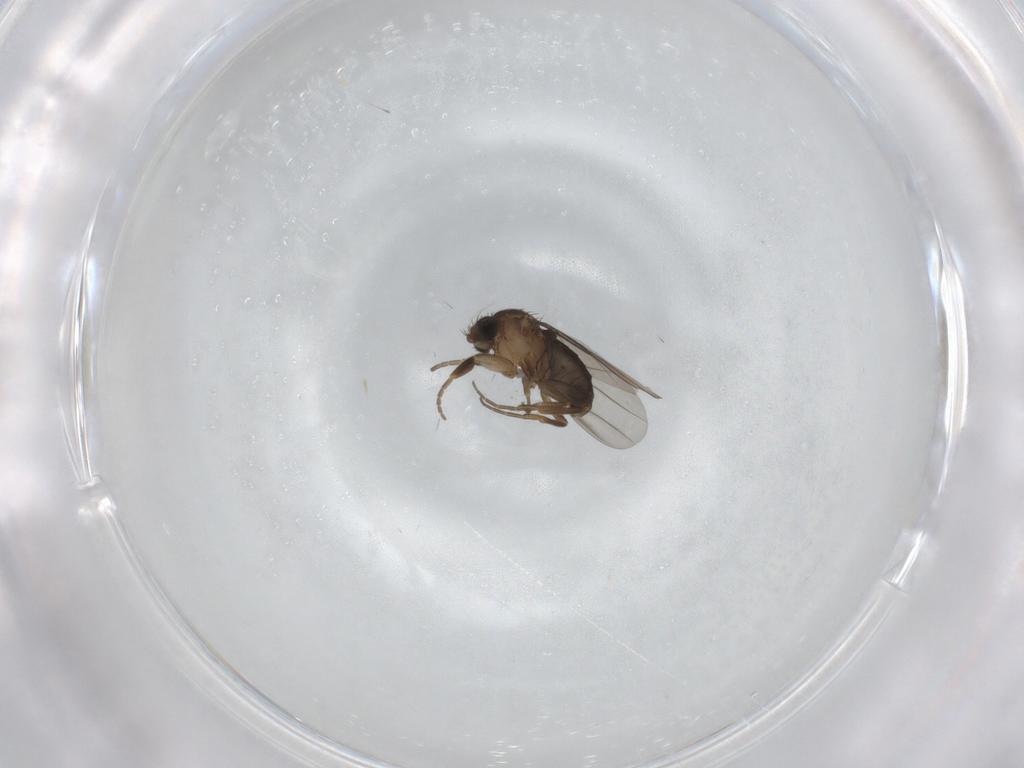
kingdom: Animalia
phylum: Arthropoda
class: Insecta
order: Diptera
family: Phoridae
